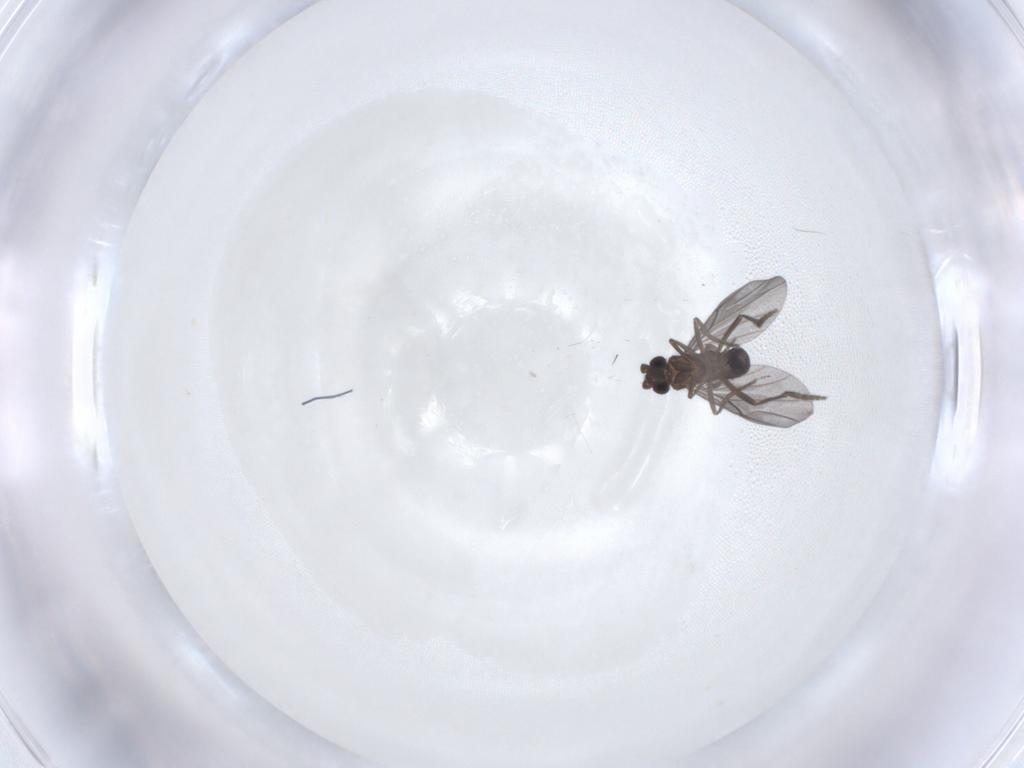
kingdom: Animalia
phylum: Arthropoda
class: Insecta
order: Diptera
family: Phoridae
